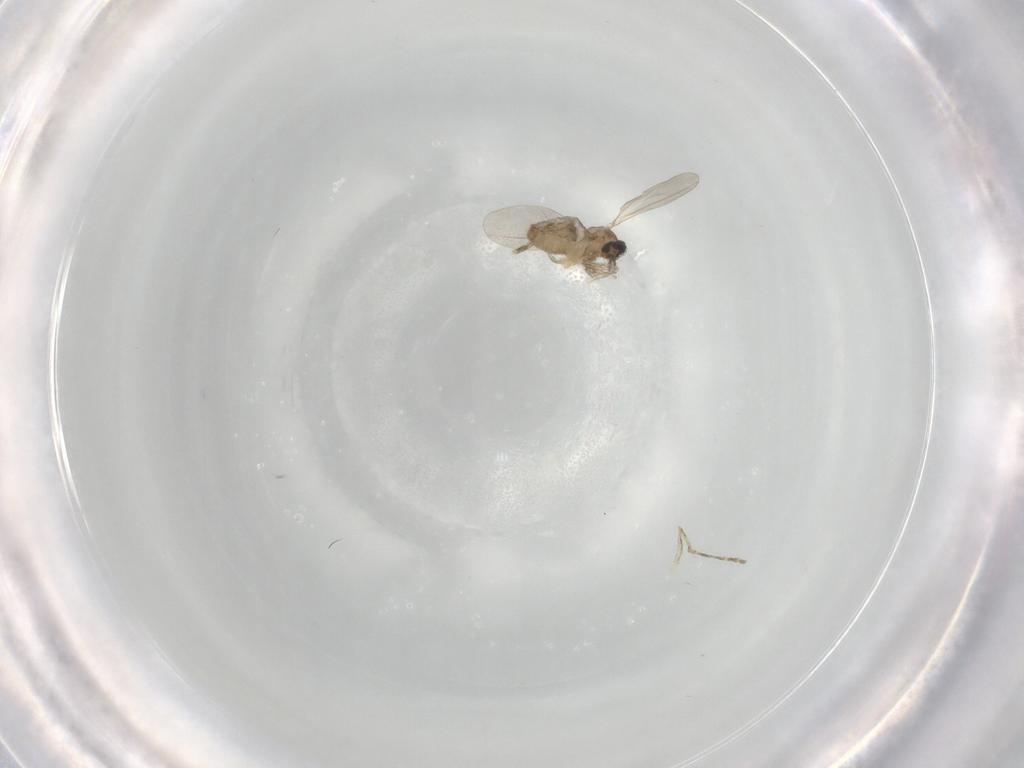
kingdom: Animalia
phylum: Arthropoda
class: Insecta
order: Diptera
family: Cecidomyiidae
